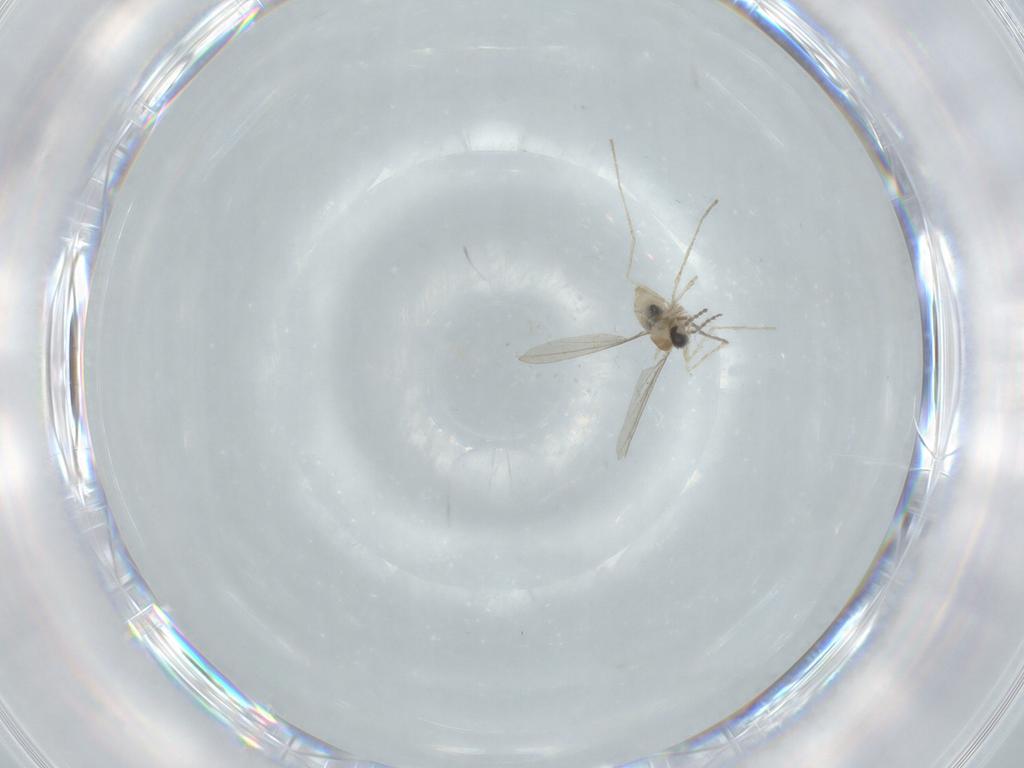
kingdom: Animalia
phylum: Arthropoda
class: Insecta
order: Diptera
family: Cecidomyiidae
